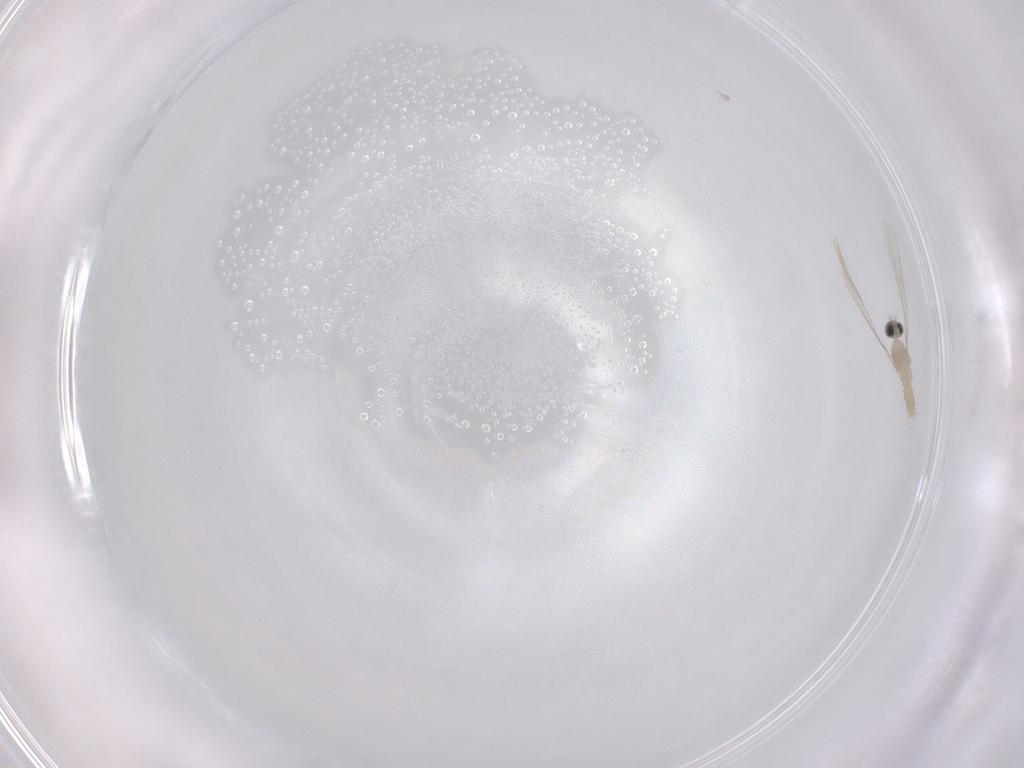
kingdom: Animalia
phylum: Arthropoda
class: Insecta
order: Diptera
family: Cecidomyiidae
